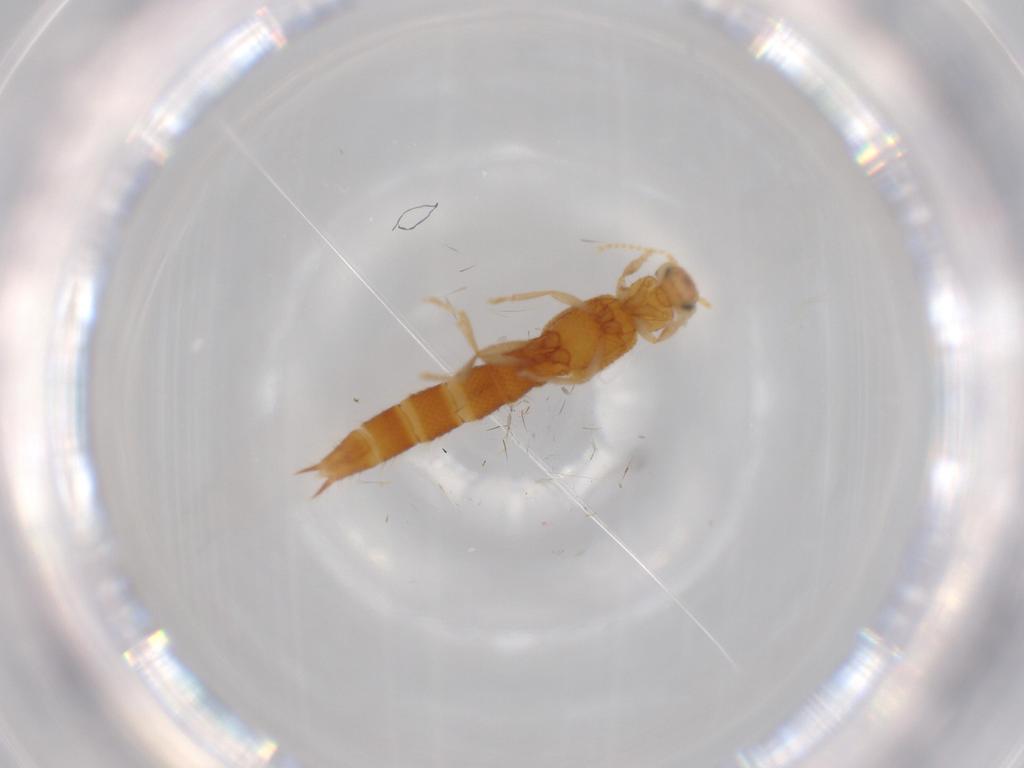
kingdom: Animalia
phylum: Arthropoda
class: Insecta
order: Coleoptera
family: Staphylinidae
